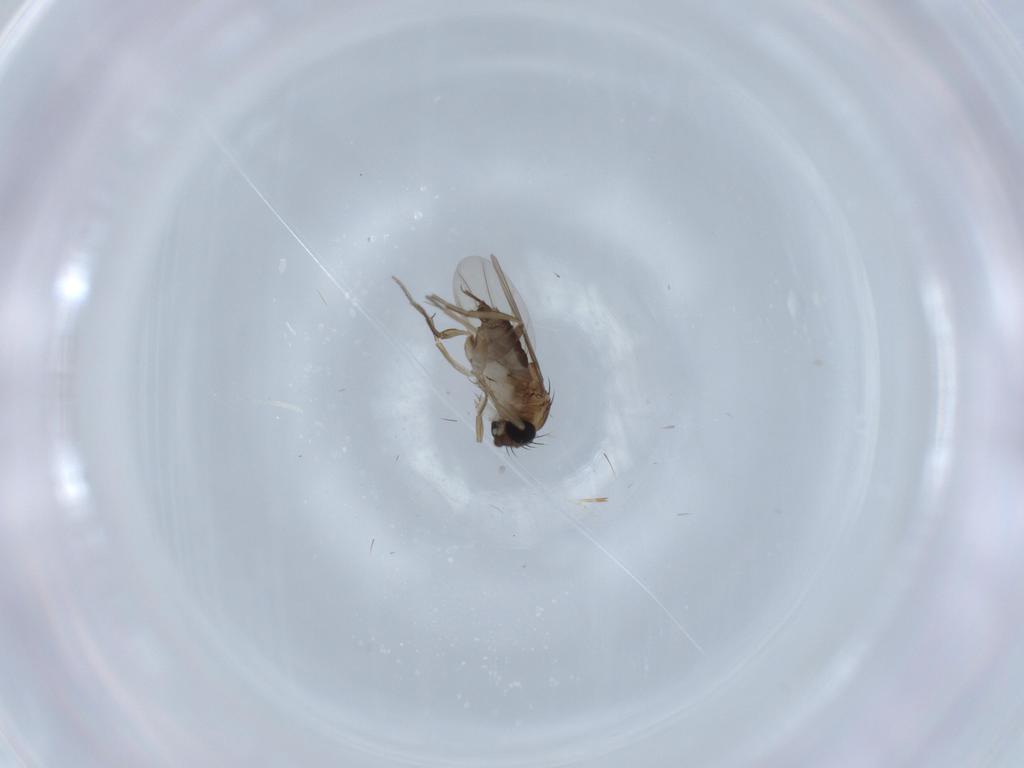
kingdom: Animalia
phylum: Arthropoda
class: Insecta
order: Diptera
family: Phoridae
